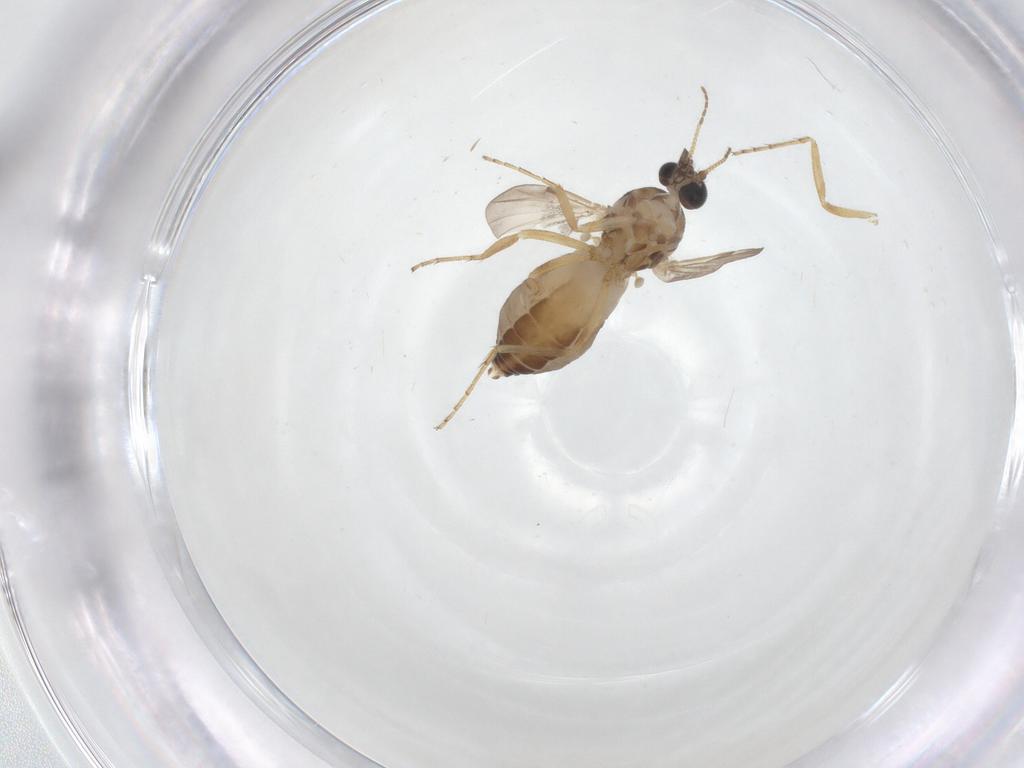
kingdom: Animalia
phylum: Arthropoda
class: Insecta
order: Diptera
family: Ceratopogonidae
